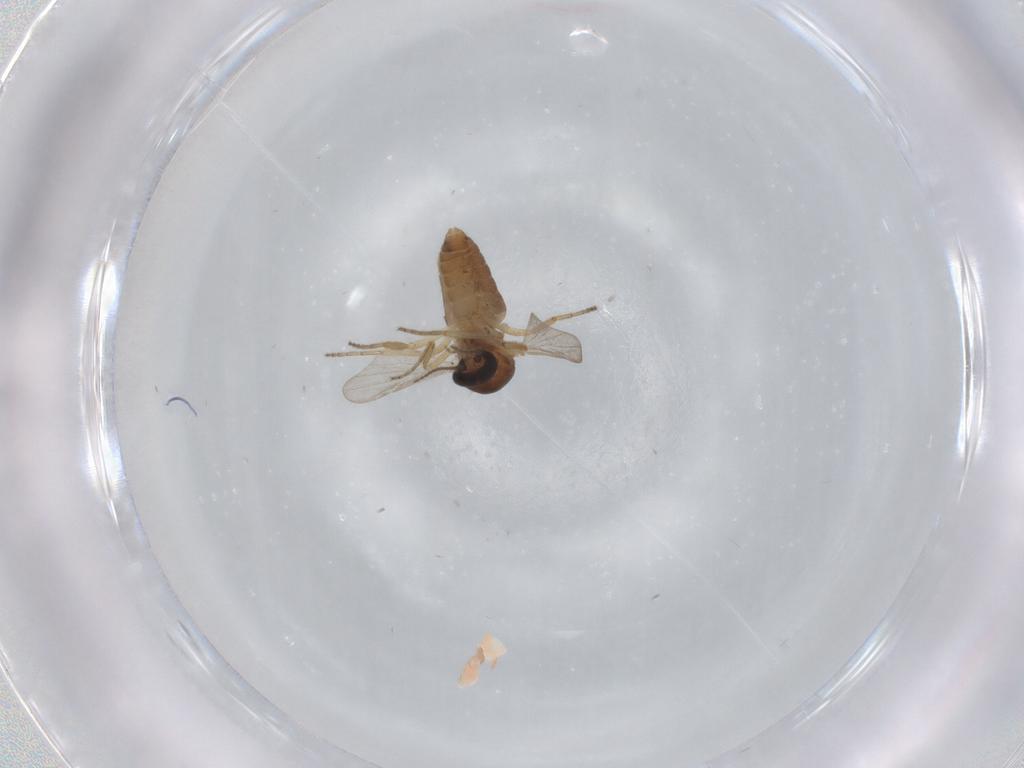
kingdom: Animalia
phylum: Arthropoda
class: Insecta
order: Diptera
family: Ceratopogonidae
